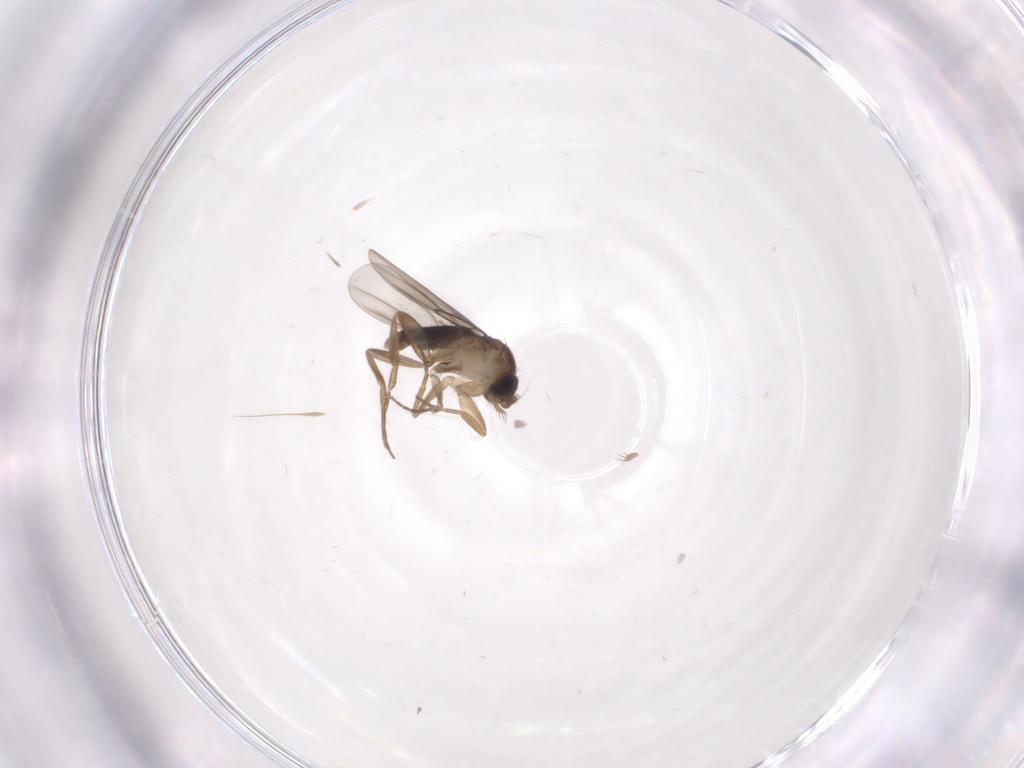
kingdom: Animalia
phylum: Arthropoda
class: Insecta
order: Diptera
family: Phoridae
